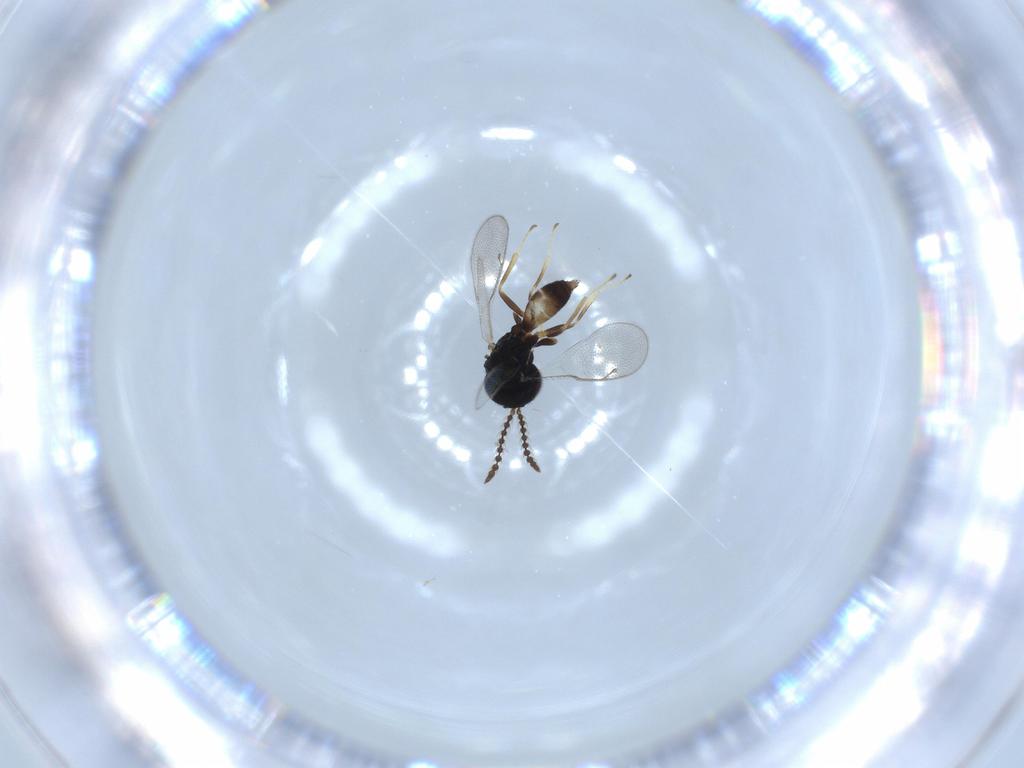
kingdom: Animalia
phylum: Arthropoda
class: Insecta
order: Hymenoptera
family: Pteromalidae
